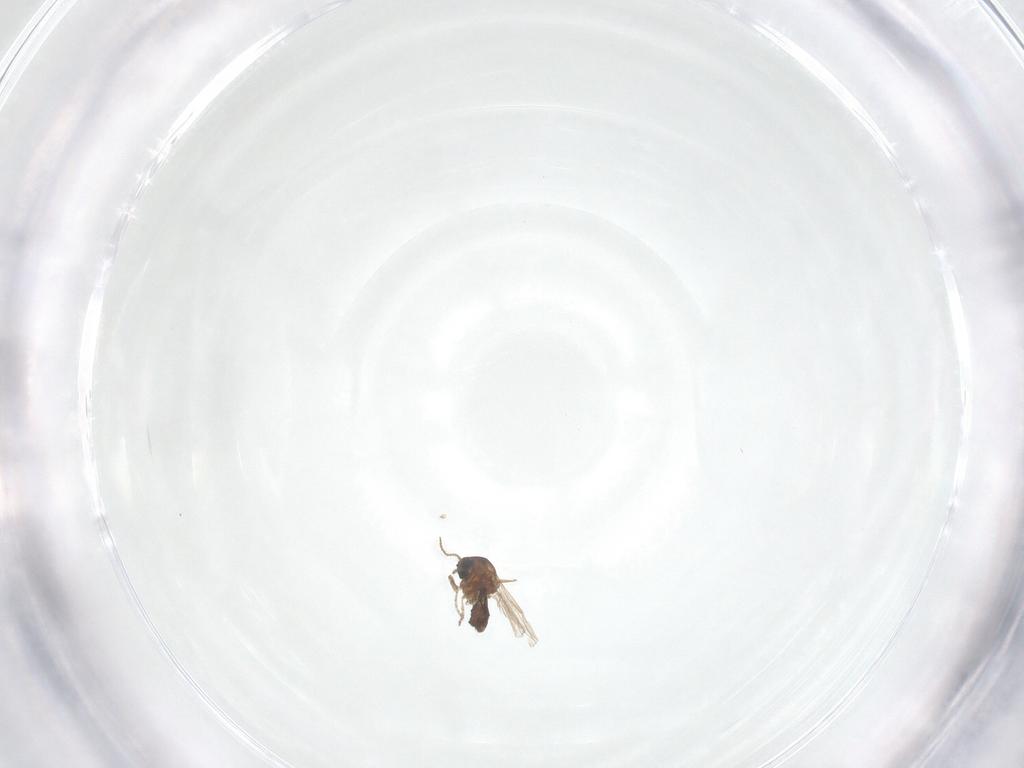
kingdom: Animalia
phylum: Arthropoda
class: Insecta
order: Diptera
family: Ceratopogonidae
